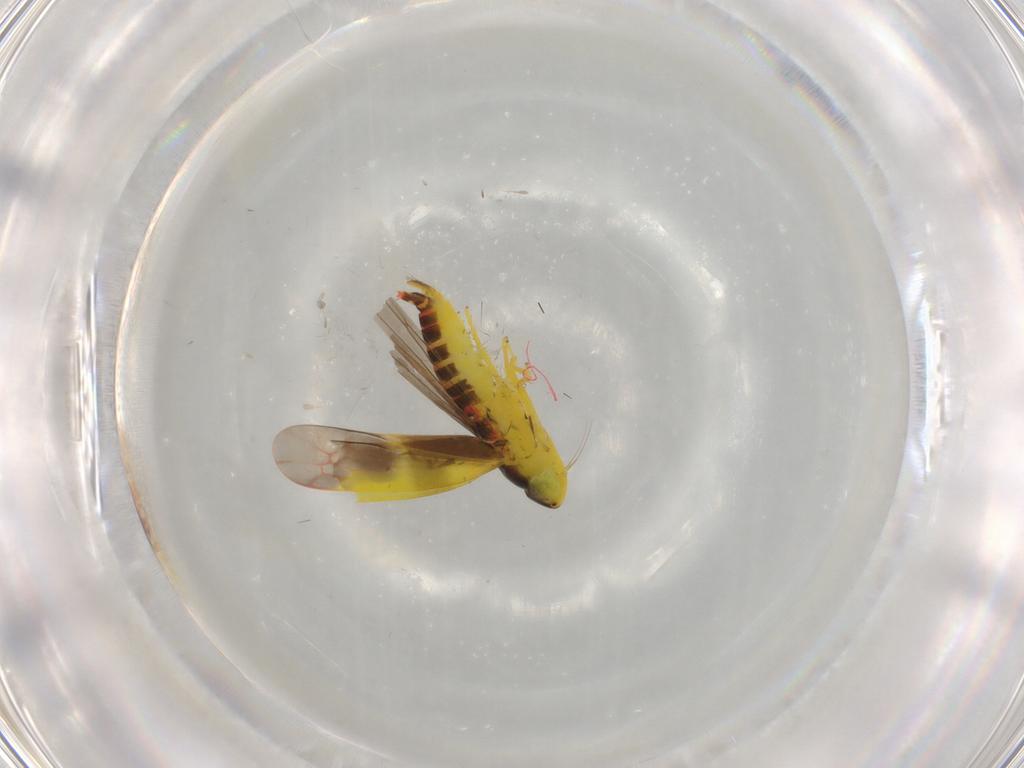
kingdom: Animalia
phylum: Arthropoda
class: Insecta
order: Hemiptera
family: Cicadellidae
